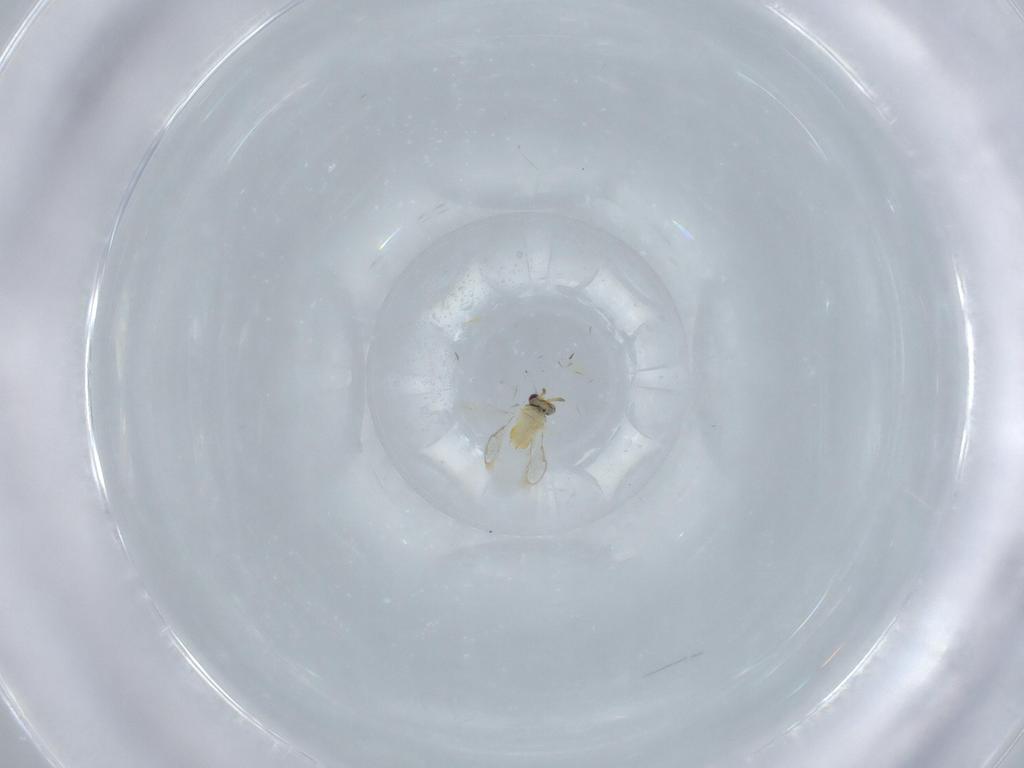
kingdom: Animalia
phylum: Arthropoda
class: Insecta
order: Hymenoptera
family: Aphelinidae
